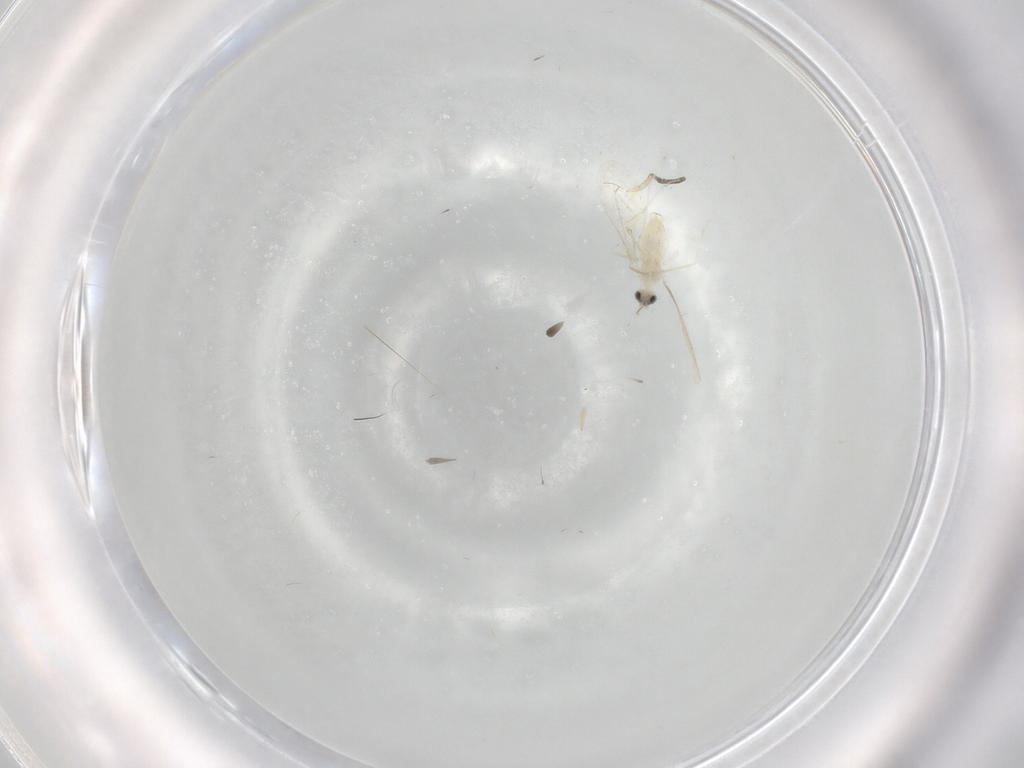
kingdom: Animalia
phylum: Arthropoda
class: Insecta
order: Diptera
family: Cecidomyiidae
